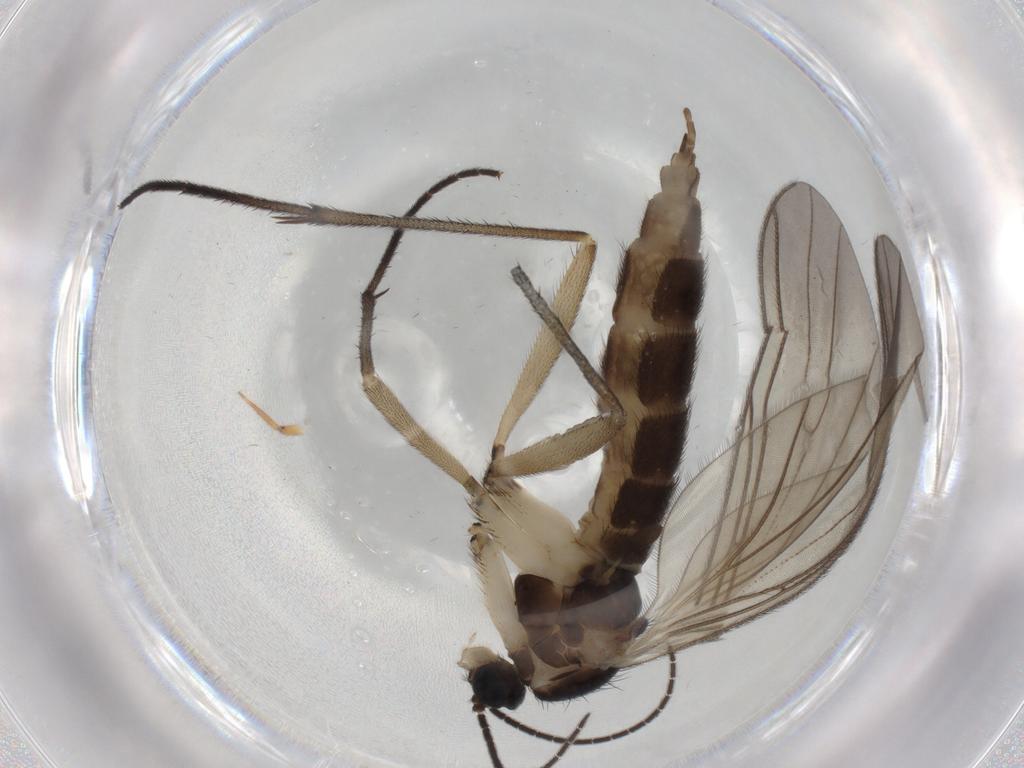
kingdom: Animalia
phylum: Arthropoda
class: Insecta
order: Diptera
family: Sciaridae
